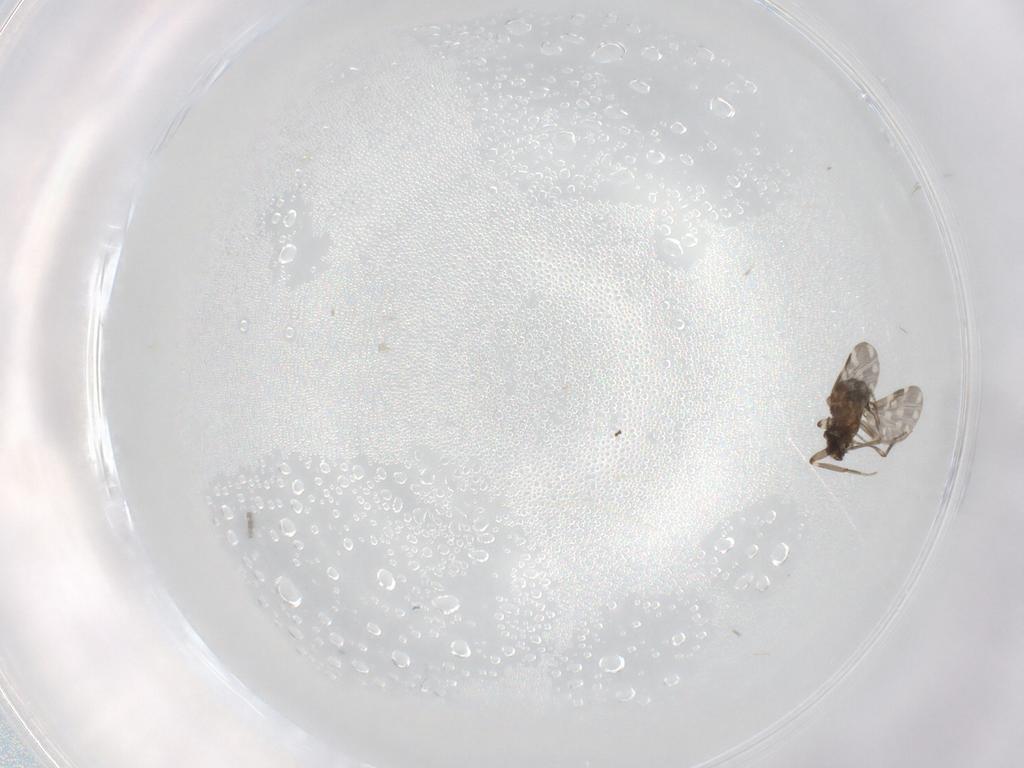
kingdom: Animalia
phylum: Arthropoda
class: Insecta
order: Diptera
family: Ceratopogonidae
